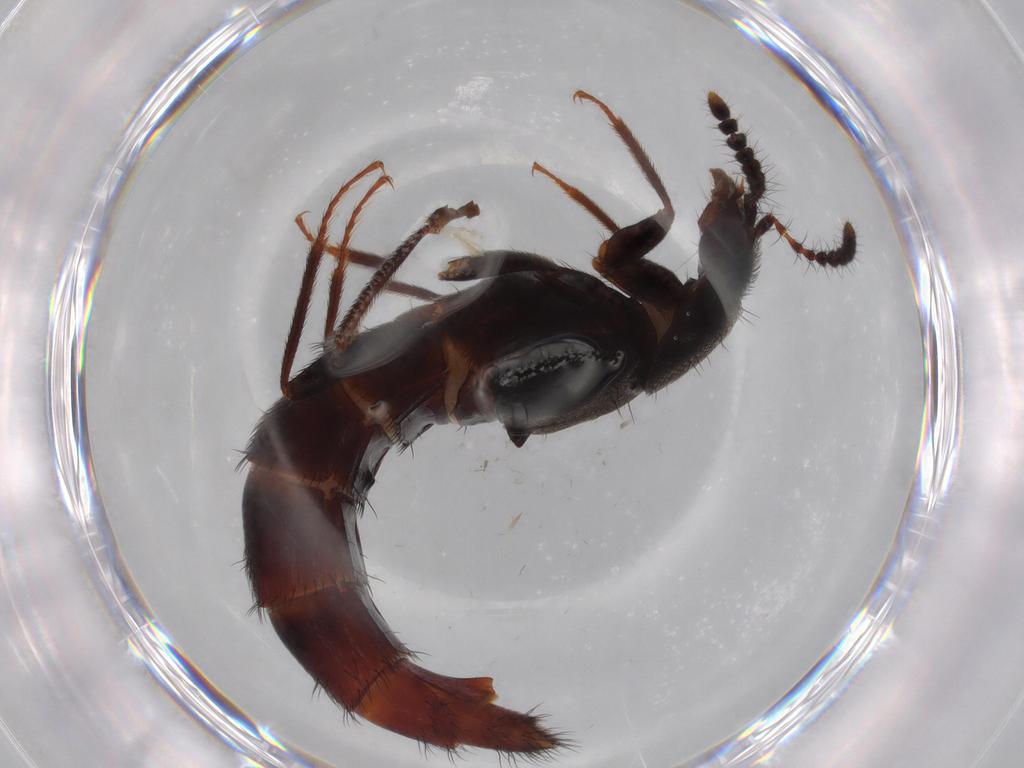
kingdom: Animalia
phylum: Arthropoda
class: Insecta
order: Coleoptera
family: Staphylinidae
